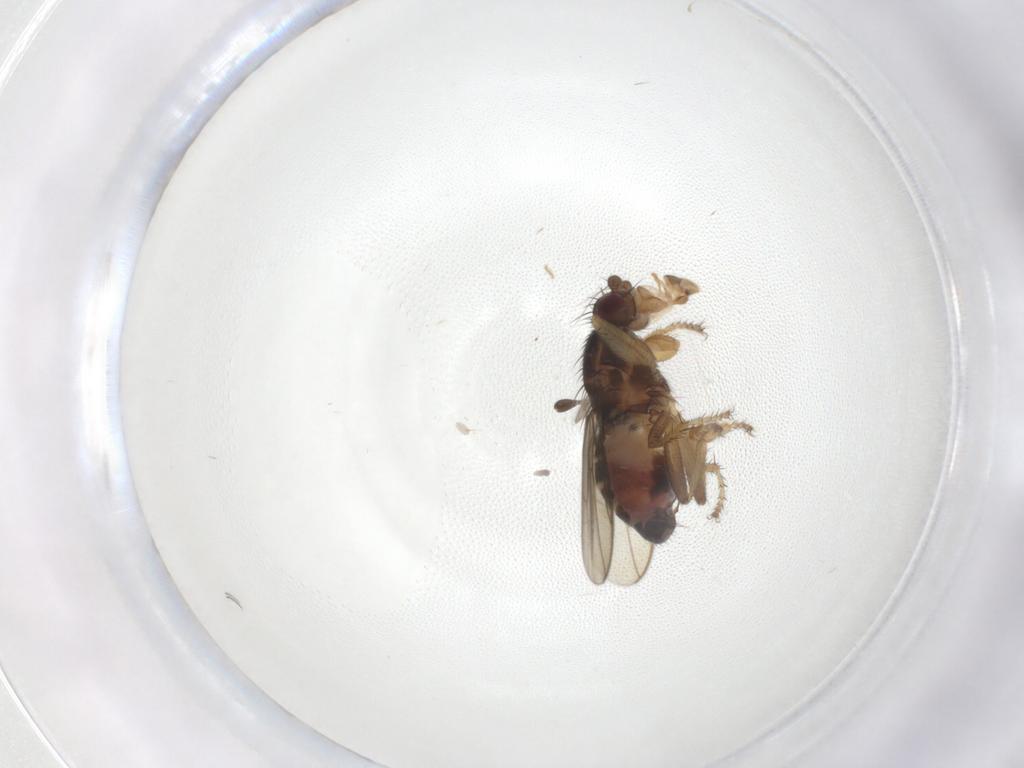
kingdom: Animalia
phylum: Arthropoda
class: Insecta
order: Diptera
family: Sphaeroceridae
